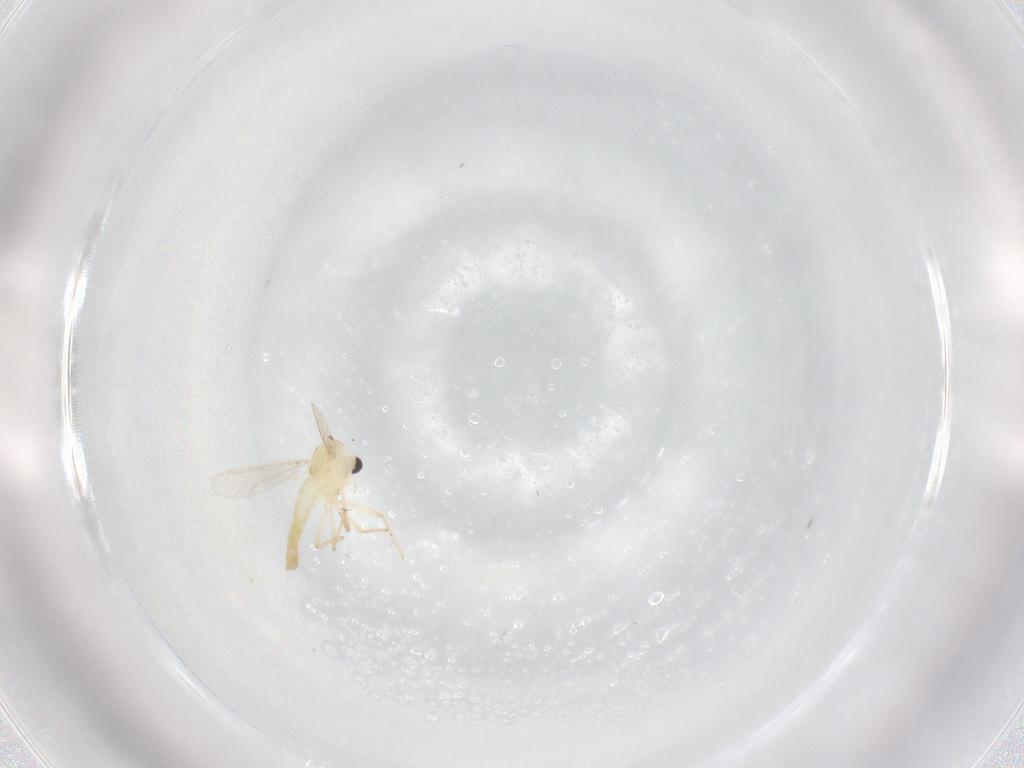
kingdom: Animalia
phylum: Arthropoda
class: Insecta
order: Diptera
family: Chironomidae
